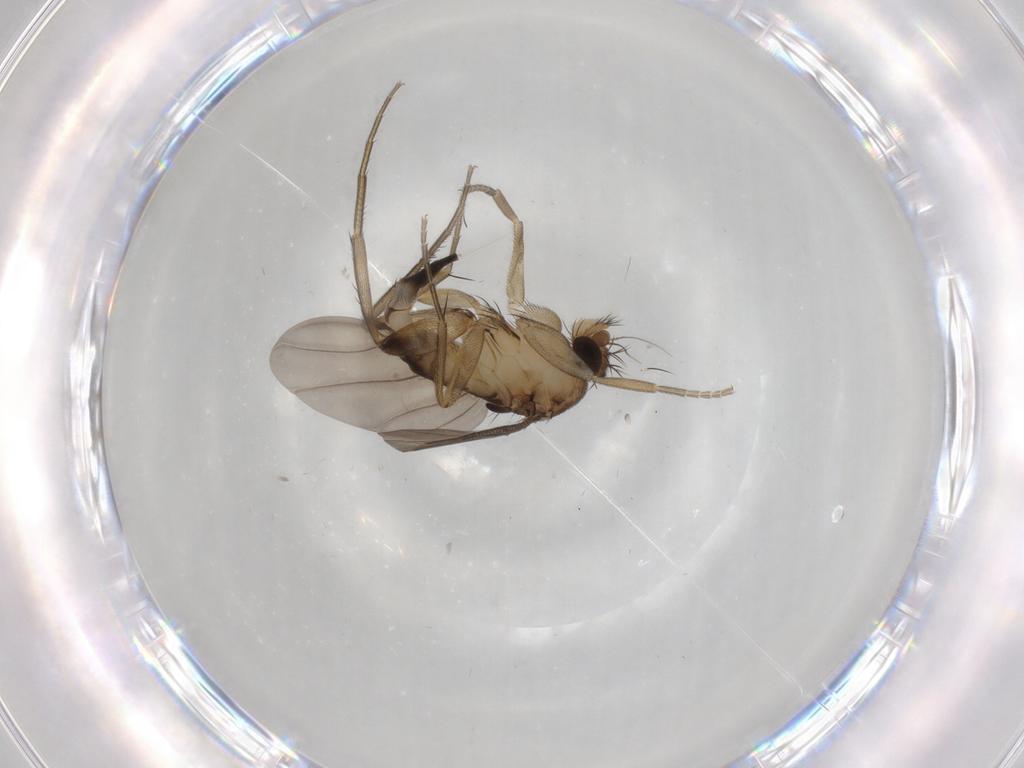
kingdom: Animalia
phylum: Arthropoda
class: Insecta
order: Diptera
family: Phoridae
